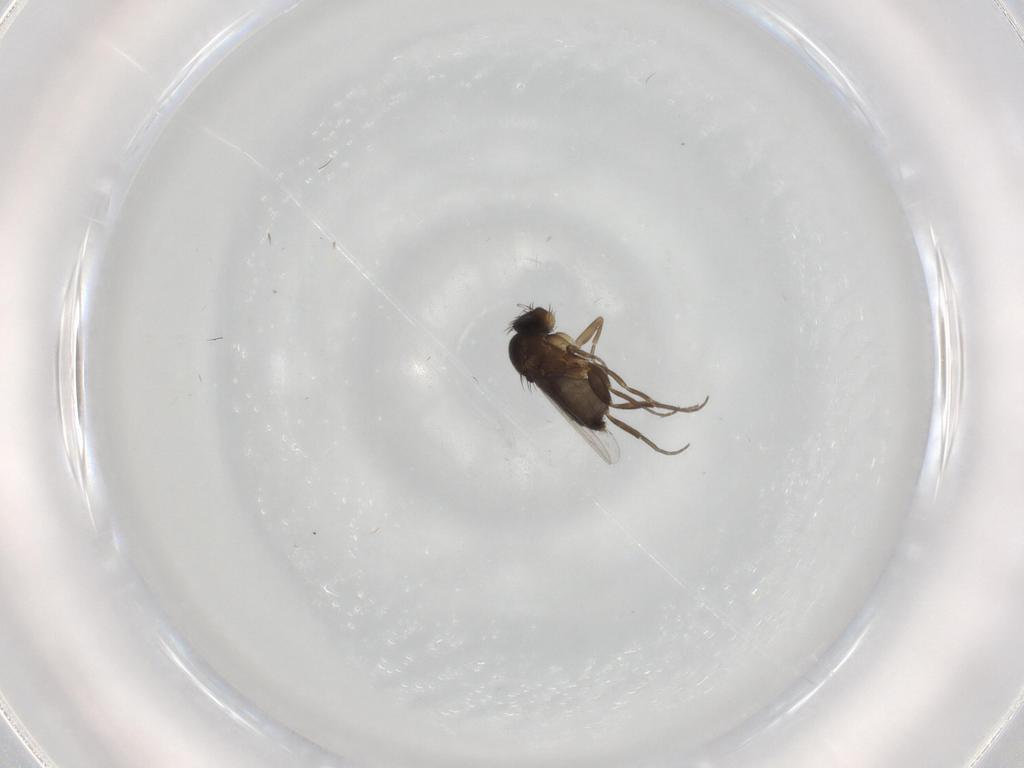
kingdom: Animalia
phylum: Arthropoda
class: Insecta
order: Diptera
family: Phoridae
